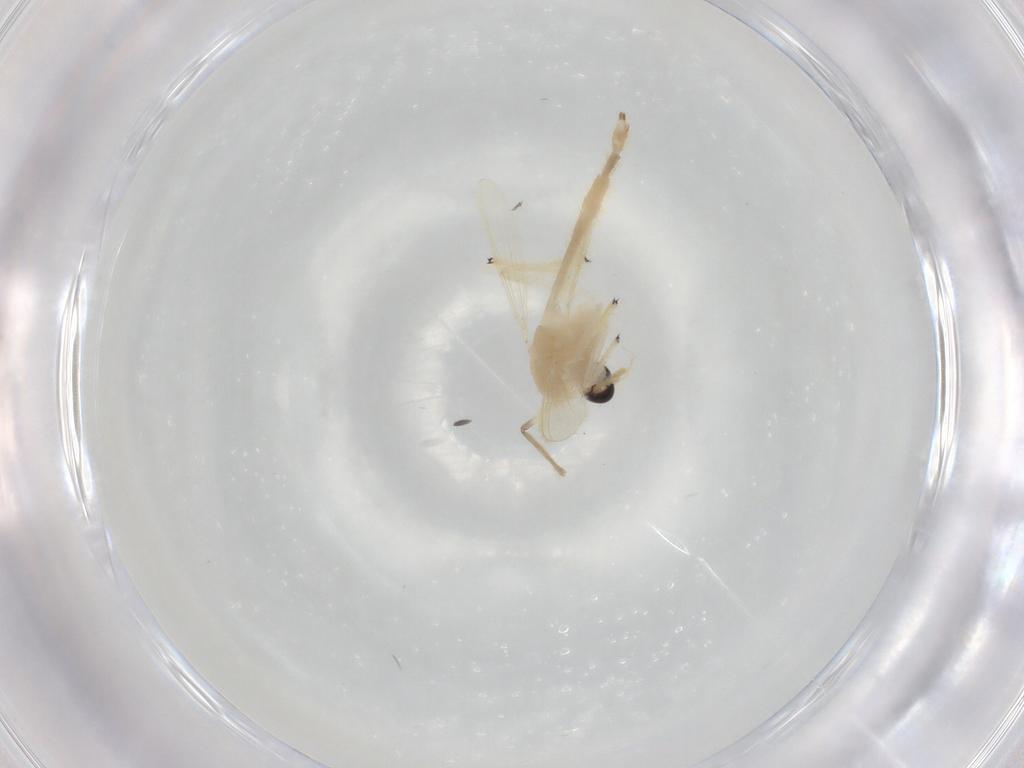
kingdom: Animalia
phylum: Arthropoda
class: Insecta
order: Diptera
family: Chironomidae
